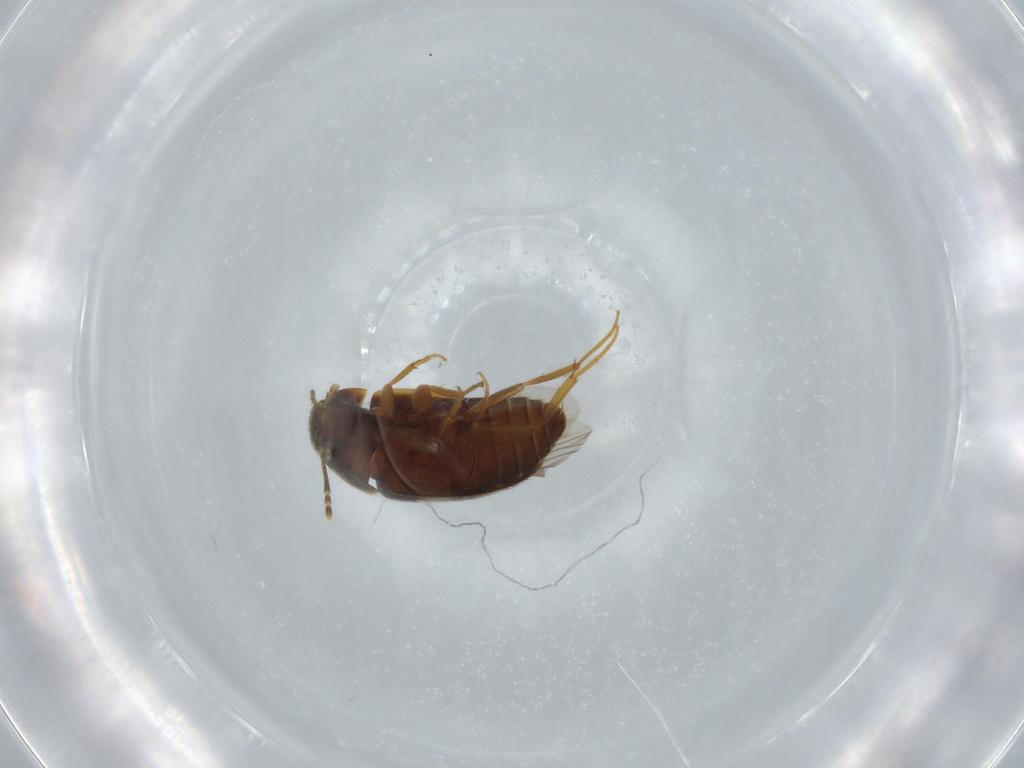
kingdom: Animalia
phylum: Arthropoda
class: Insecta
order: Coleoptera
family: Mycetophagidae
